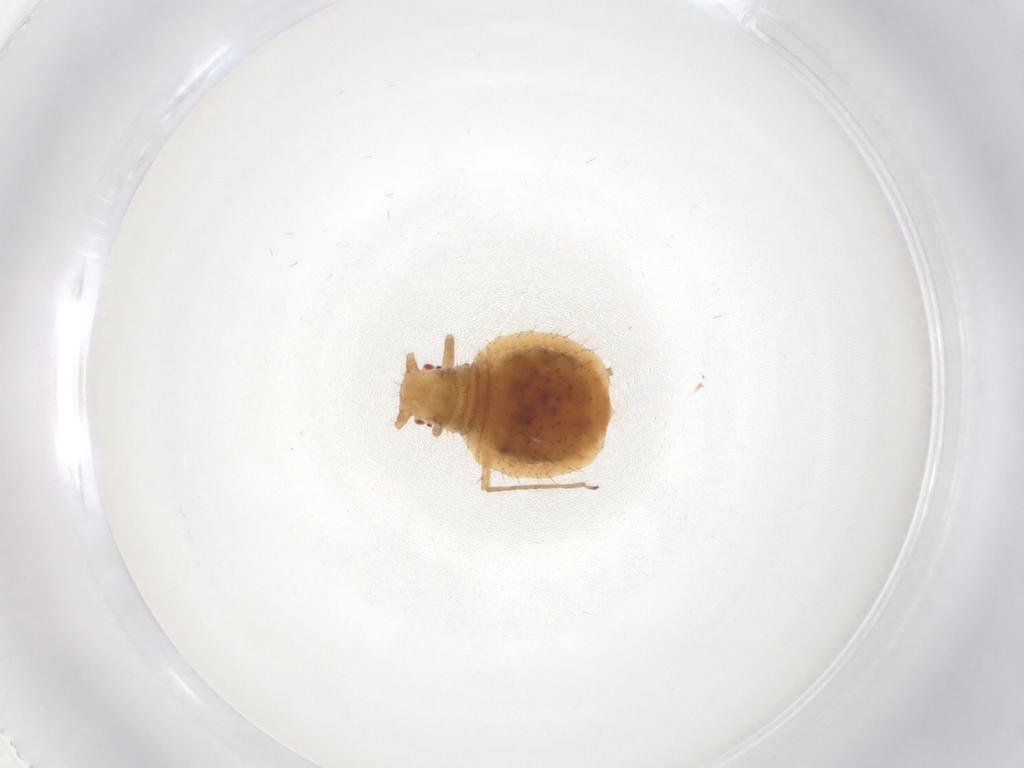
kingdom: Animalia
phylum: Arthropoda
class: Insecta
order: Hemiptera
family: Aphididae
